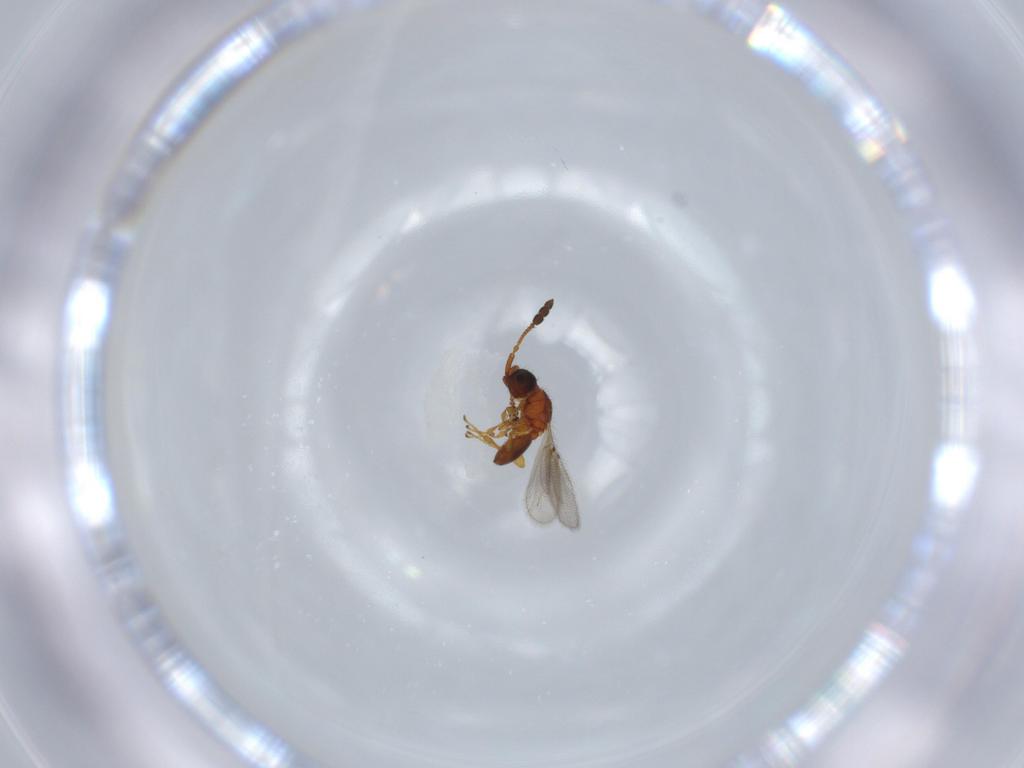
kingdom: Animalia
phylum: Arthropoda
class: Insecta
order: Hymenoptera
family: Diapriidae
